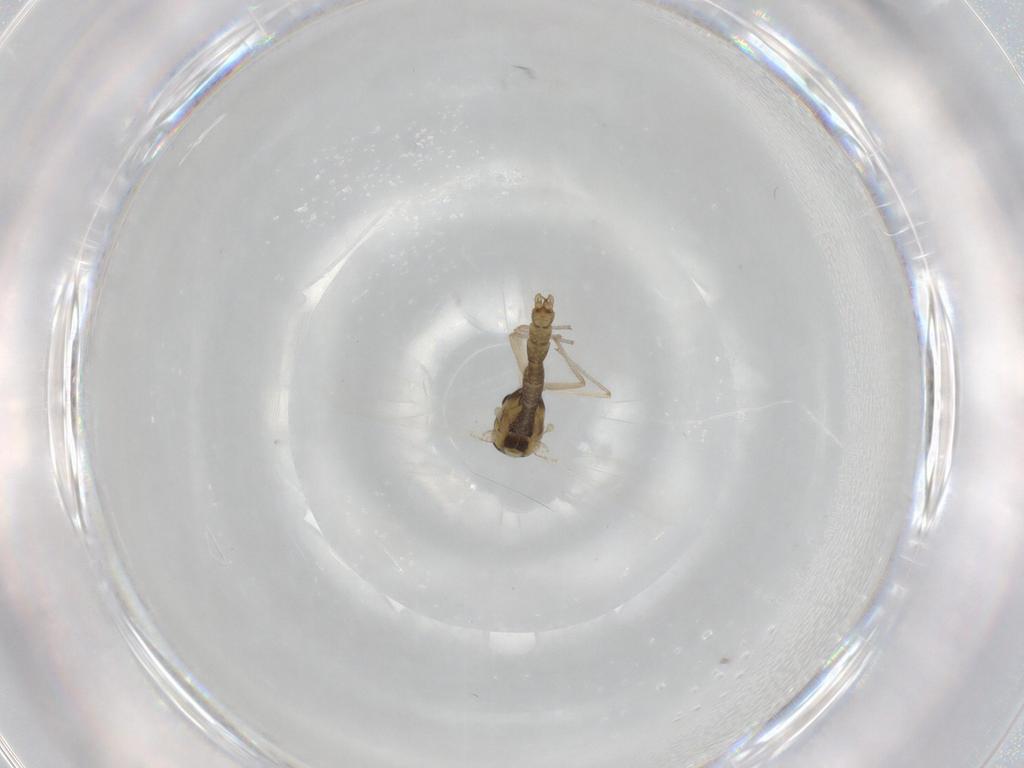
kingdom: Animalia
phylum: Arthropoda
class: Insecta
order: Diptera
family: Chironomidae
